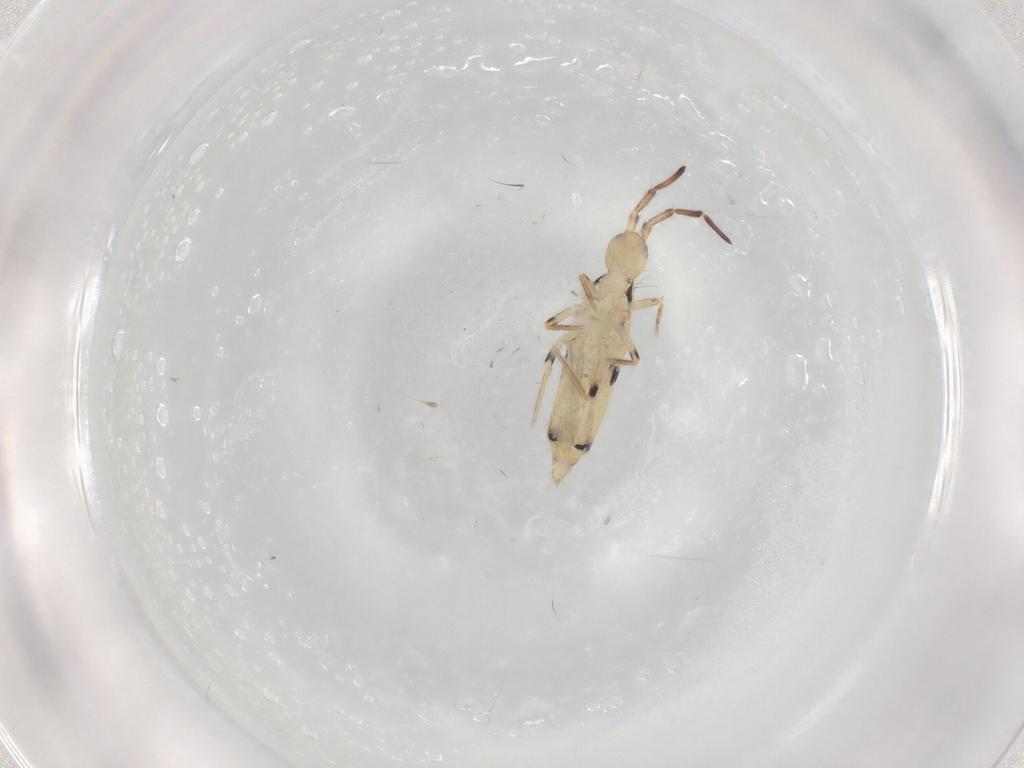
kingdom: Animalia
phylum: Arthropoda
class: Collembola
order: Entomobryomorpha
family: Entomobryidae
